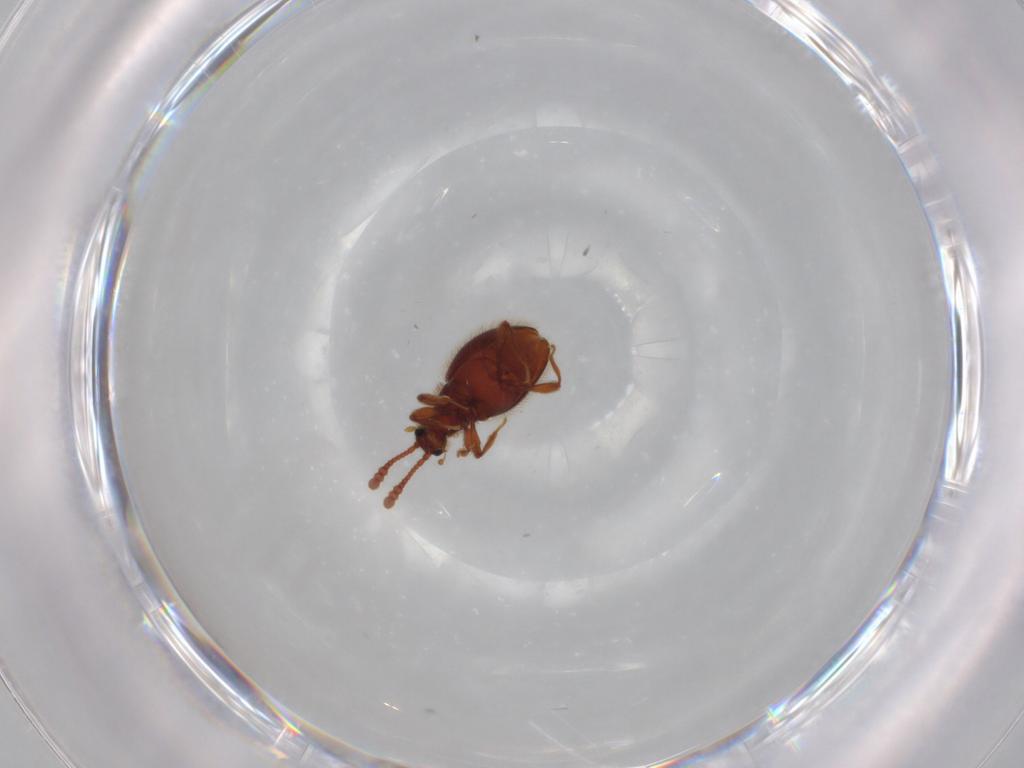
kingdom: Animalia
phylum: Arthropoda
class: Insecta
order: Coleoptera
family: Staphylinidae
